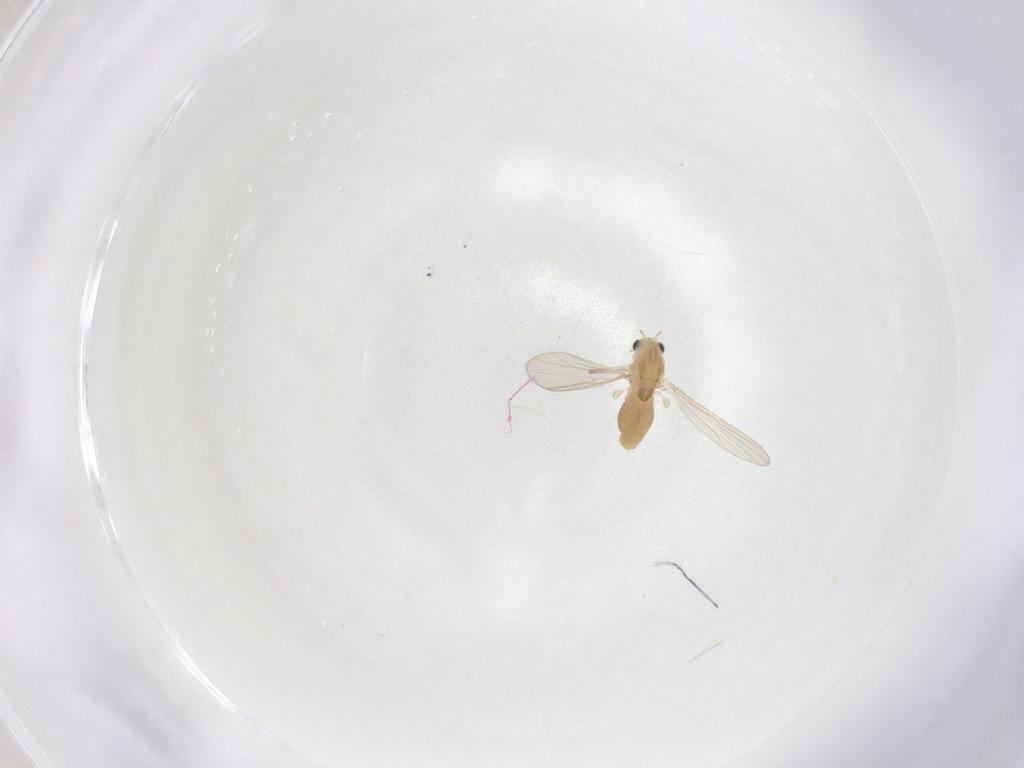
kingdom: Animalia
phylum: Arthropoda
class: Insecta
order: Diptera
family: Chironomidae
